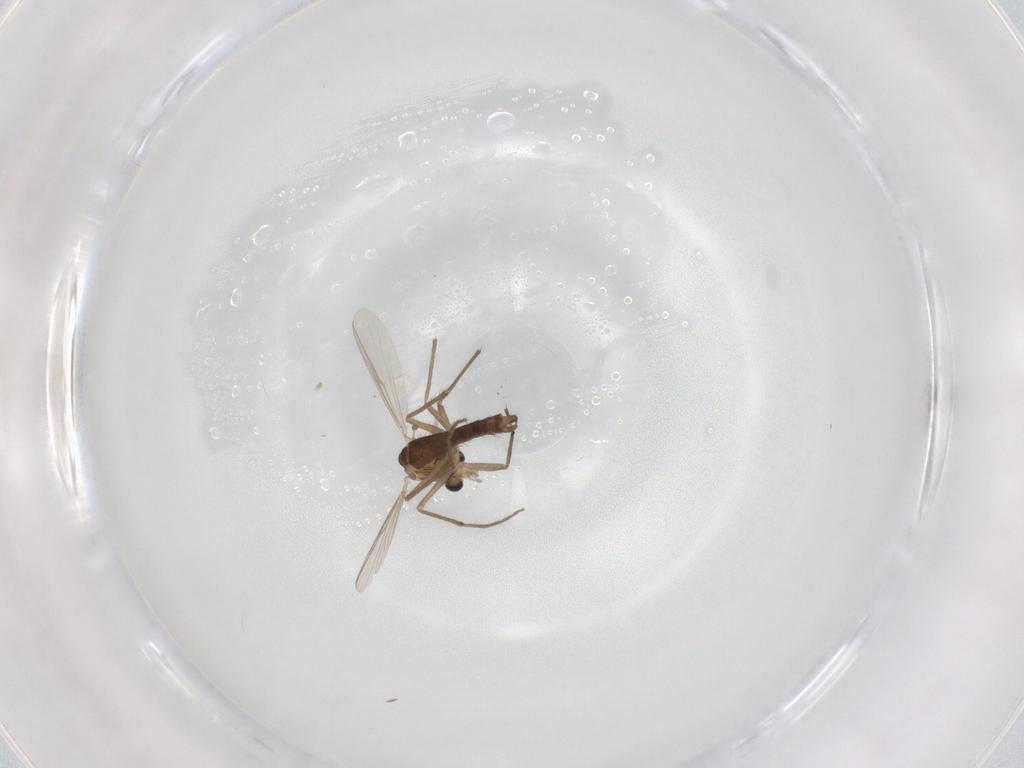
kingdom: Animalia
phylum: Arthropoda
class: Insecta
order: Diptera
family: Chironomidae
